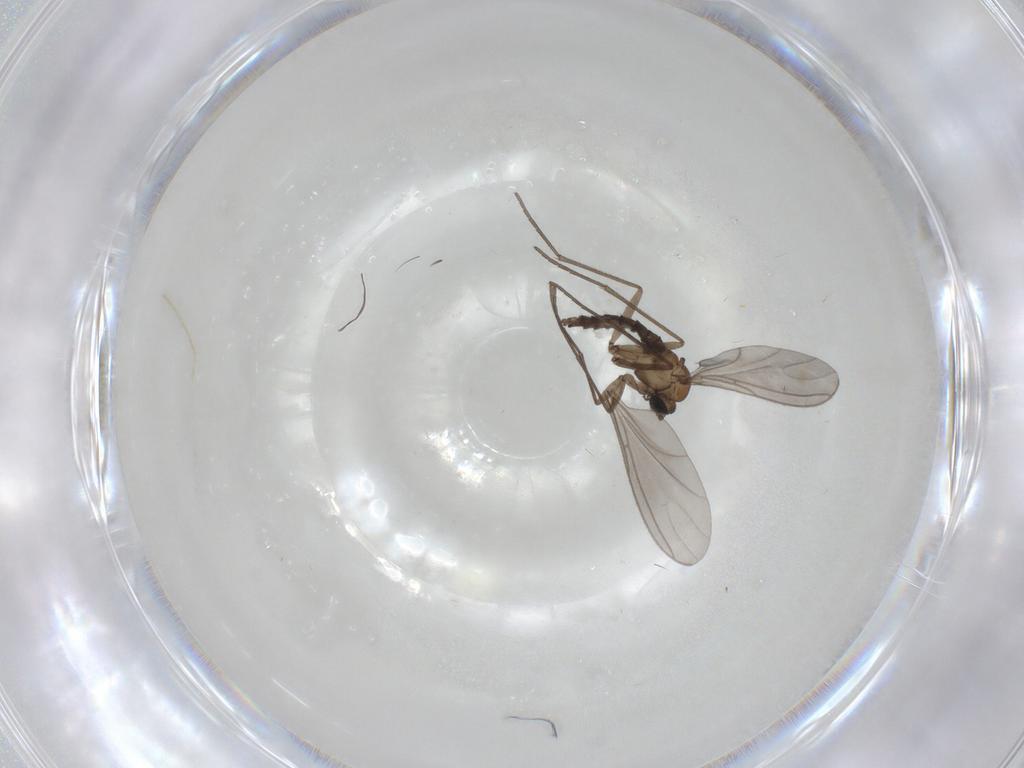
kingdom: Animalia
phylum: Arthropoda
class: Insecta
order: Diptera
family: Sciaridae
